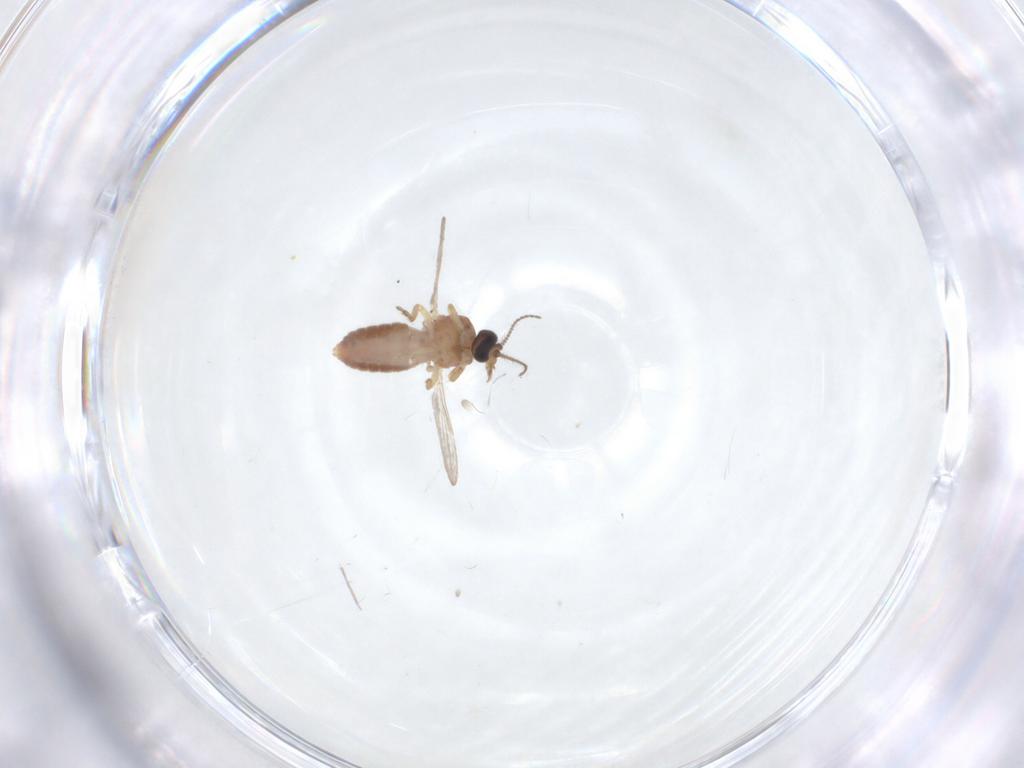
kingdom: Animalia
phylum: Arthropoda
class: Insecta
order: Diptera
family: Ceratopogonidae
